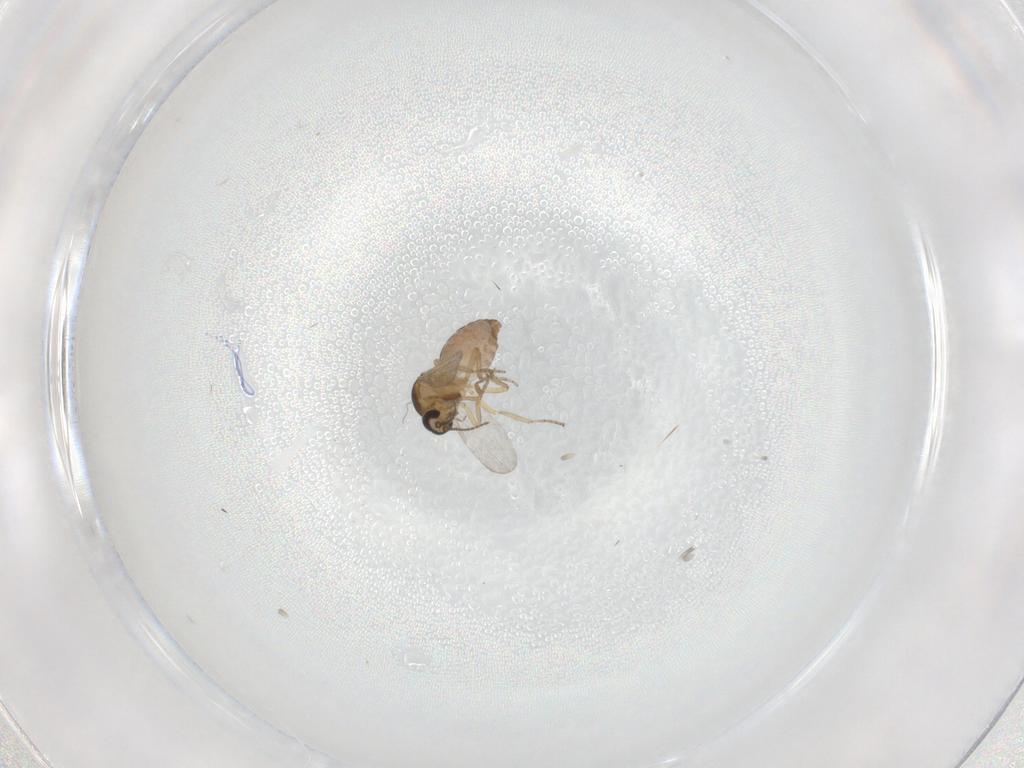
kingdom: Animalia
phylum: Arthropoda
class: Insecta
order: Diptera
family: Ceratopogonidae
